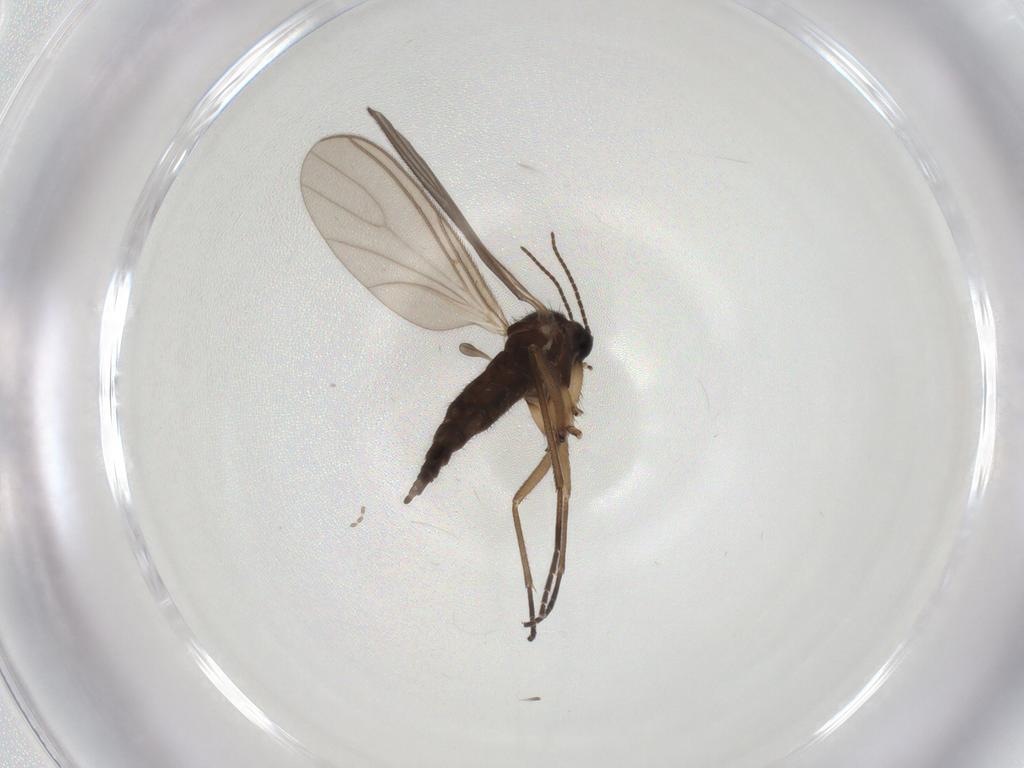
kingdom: Animalia
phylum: Arthropoda
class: Insecta
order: Diptera
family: Sciaridae
